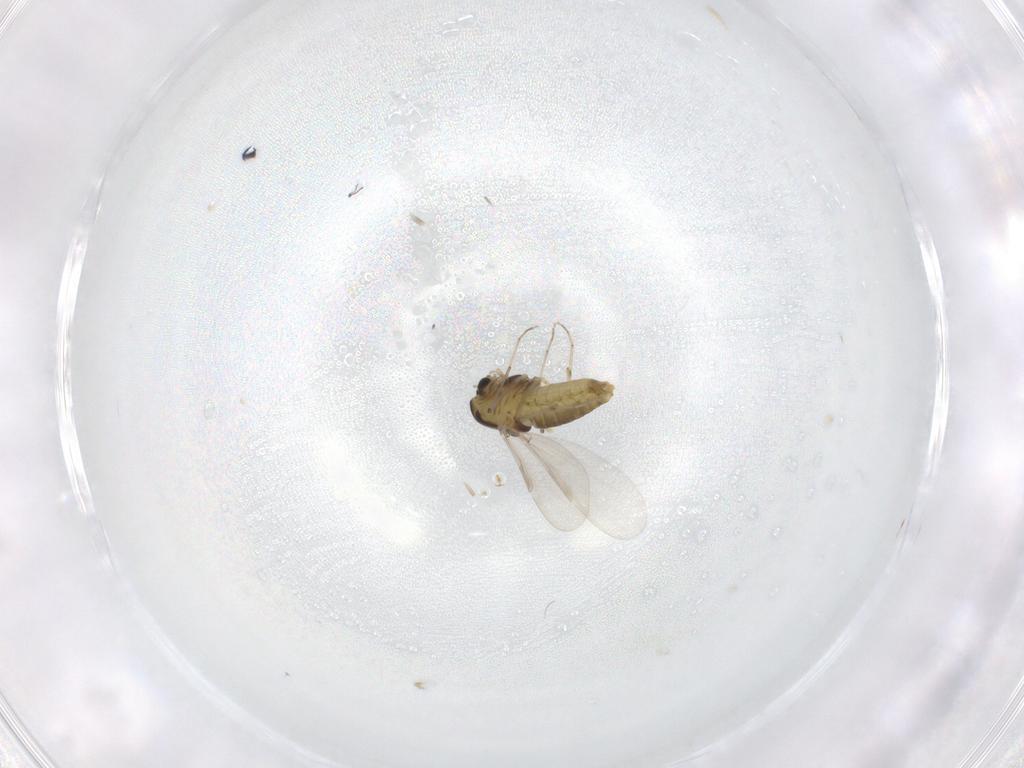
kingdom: Animalia
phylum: Arthropoda
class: Insecta
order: Diptera
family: Chironomidae
